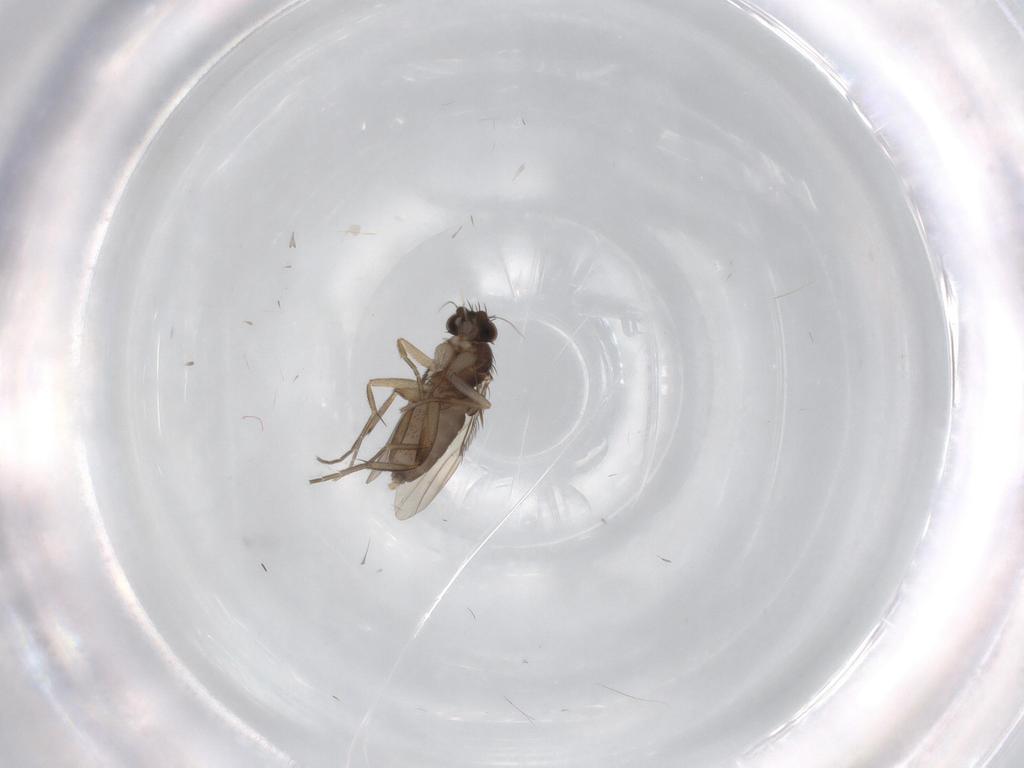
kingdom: Animalia
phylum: Arthropoda
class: Insecta
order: Diptera
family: Phoridae
